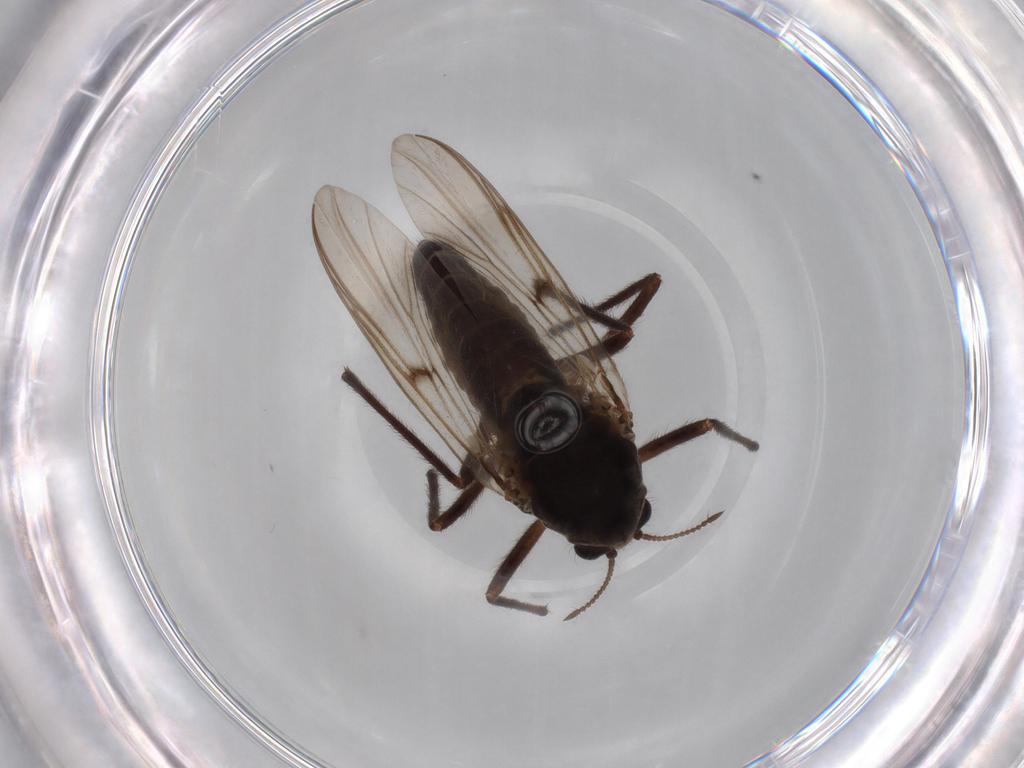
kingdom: Animalia
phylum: Arthropoda
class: Insecta
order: Diptera
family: Chironomidae
